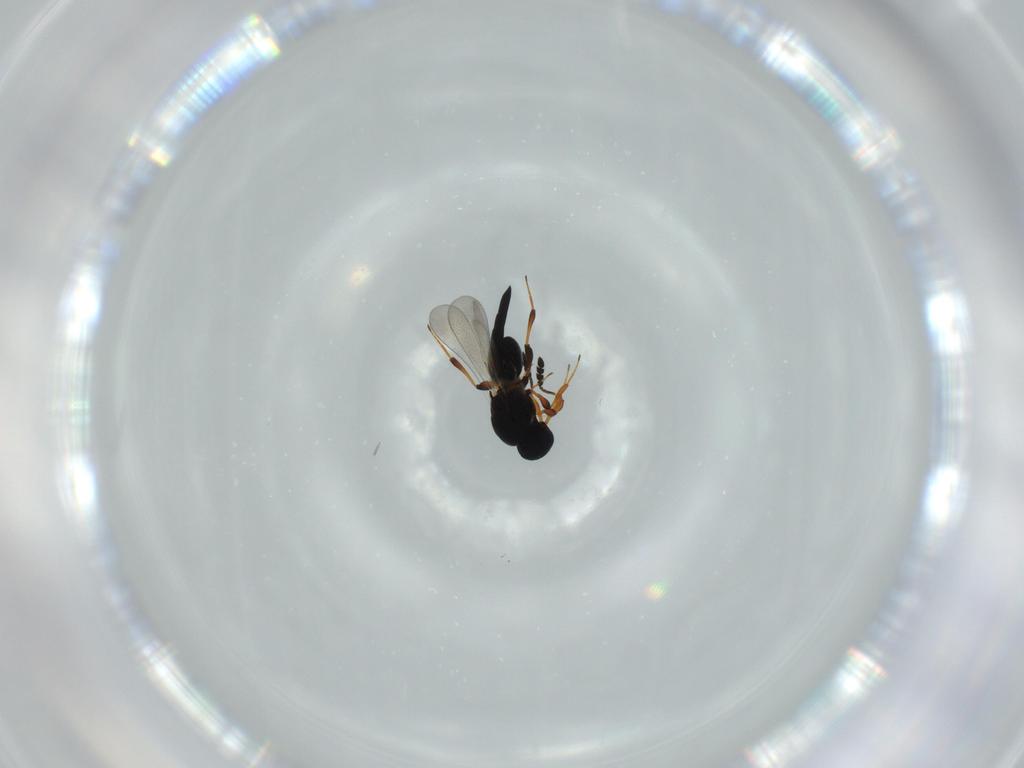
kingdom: Animalia
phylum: Arthropoda
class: Insecta
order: Hymenoptera
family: Platygastridae
